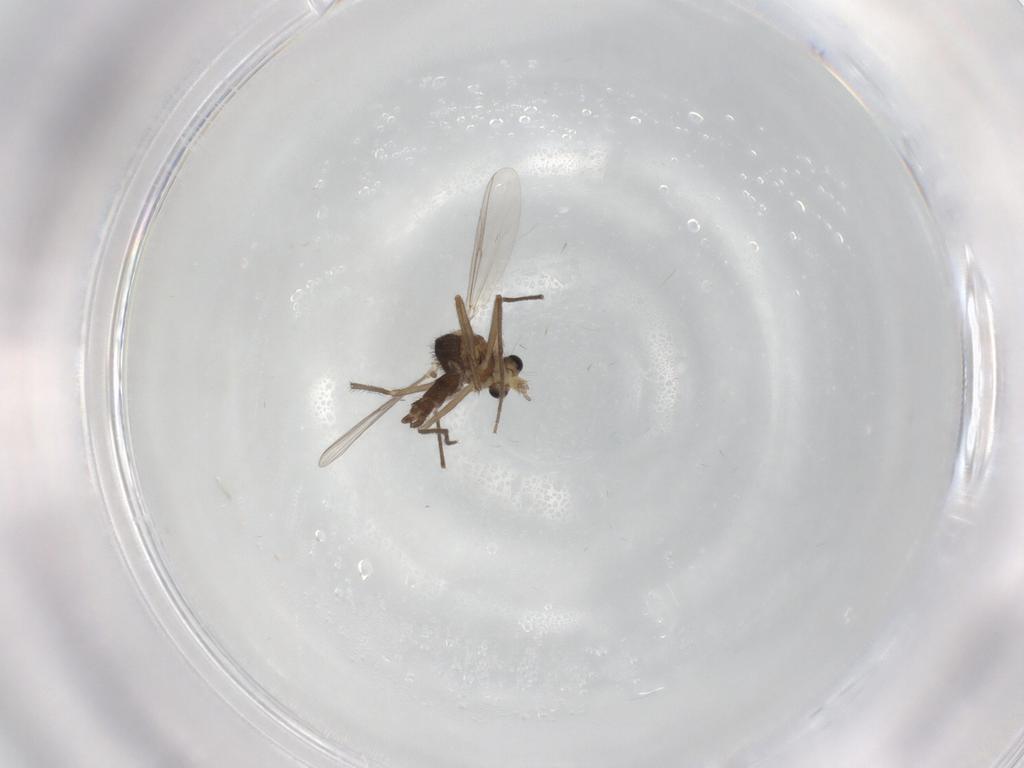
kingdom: Animalia
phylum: Arthropoda
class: Insecta
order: Diptera
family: Chironomidae
